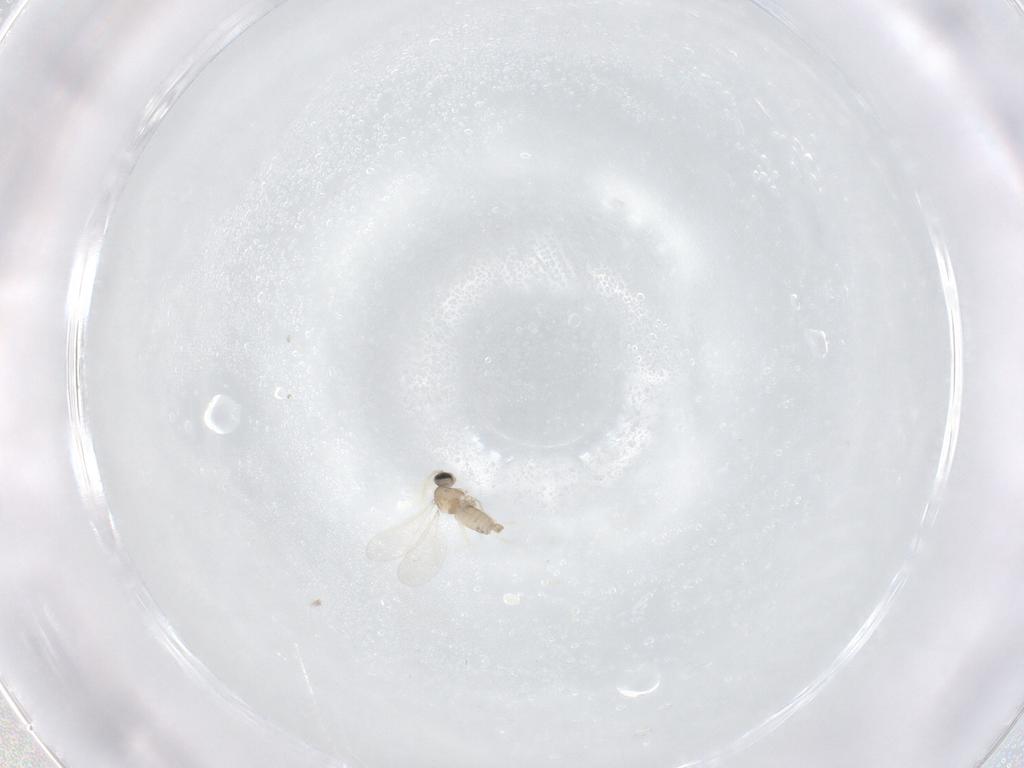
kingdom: Animalia
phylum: Arthropoda
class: Insecta
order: Diptera
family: Cecidomyiidae
